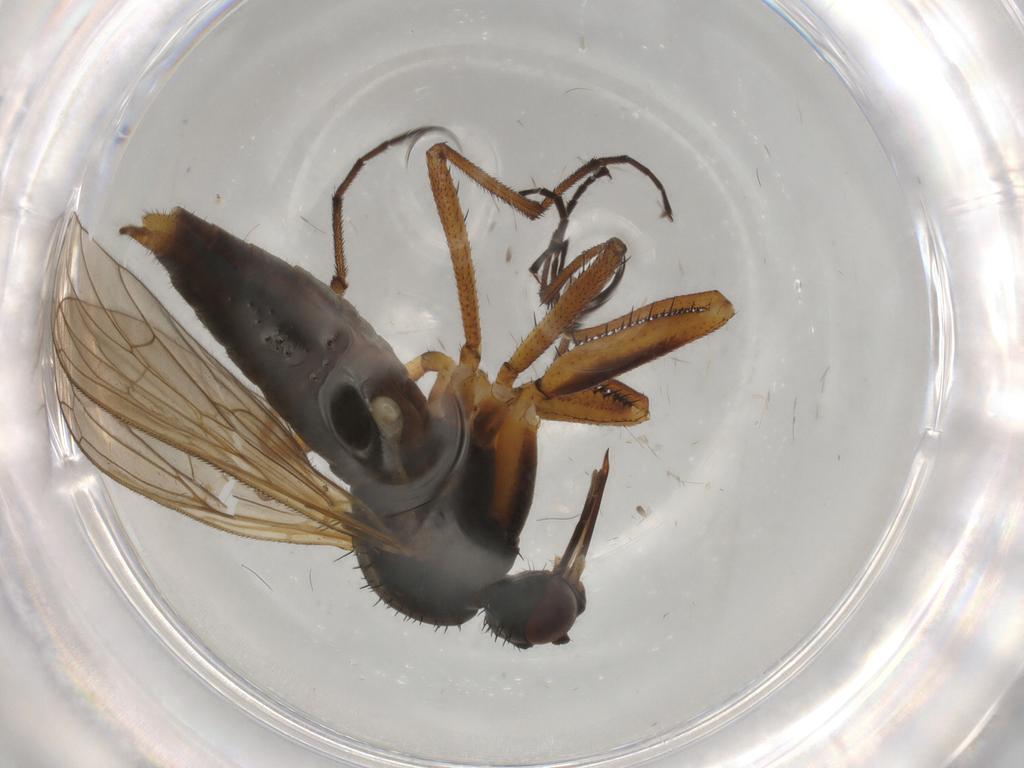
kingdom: Animalia
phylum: Arthropoda
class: Insecta
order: Diptera
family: Empididae
